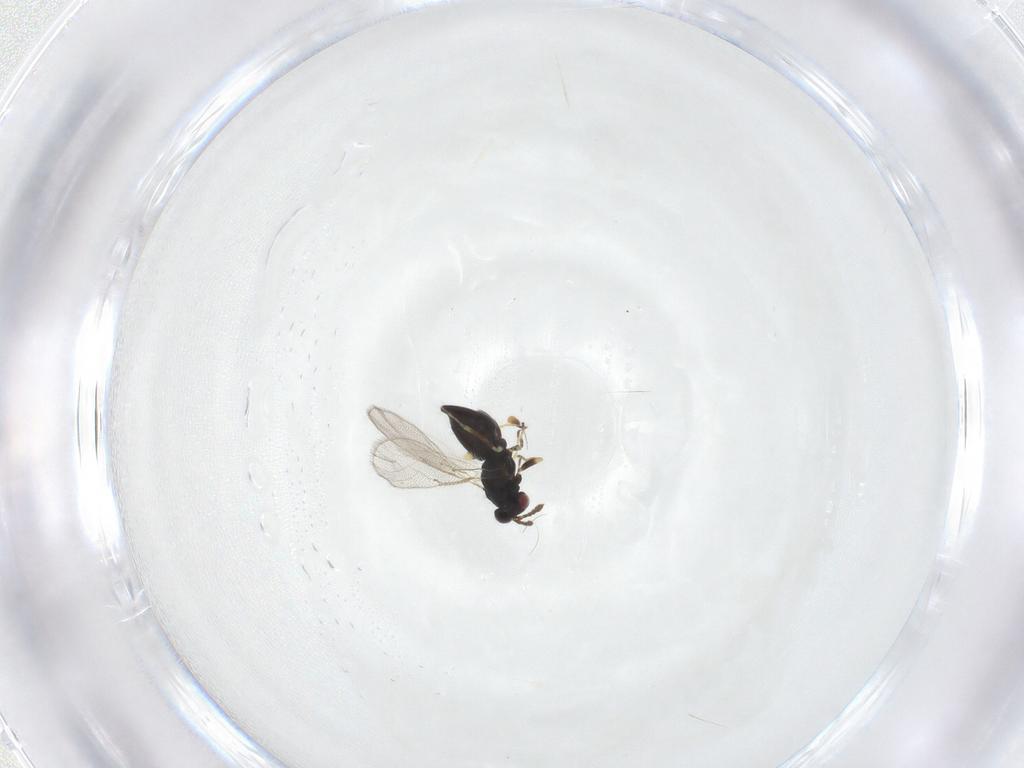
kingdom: Animalia
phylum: Arthropoda
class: Insecta
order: Hymenoptera
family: Eulophidae
